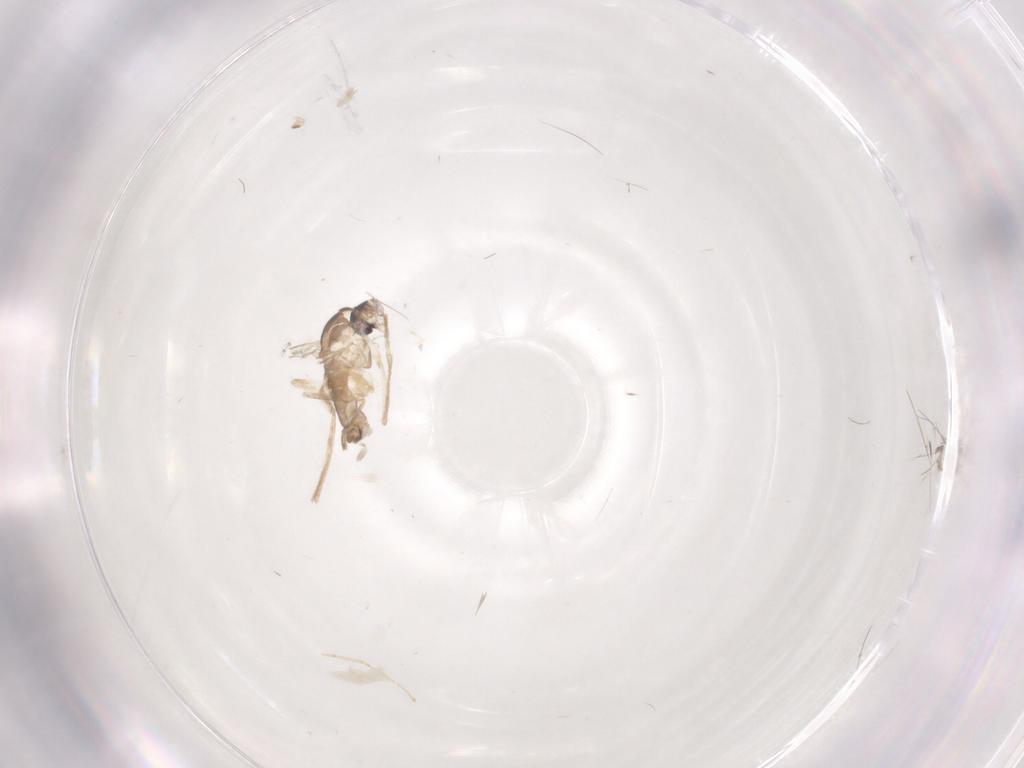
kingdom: Animalia
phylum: Arthropoda
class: Insecta
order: Diptera
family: Cecidomyiidae
